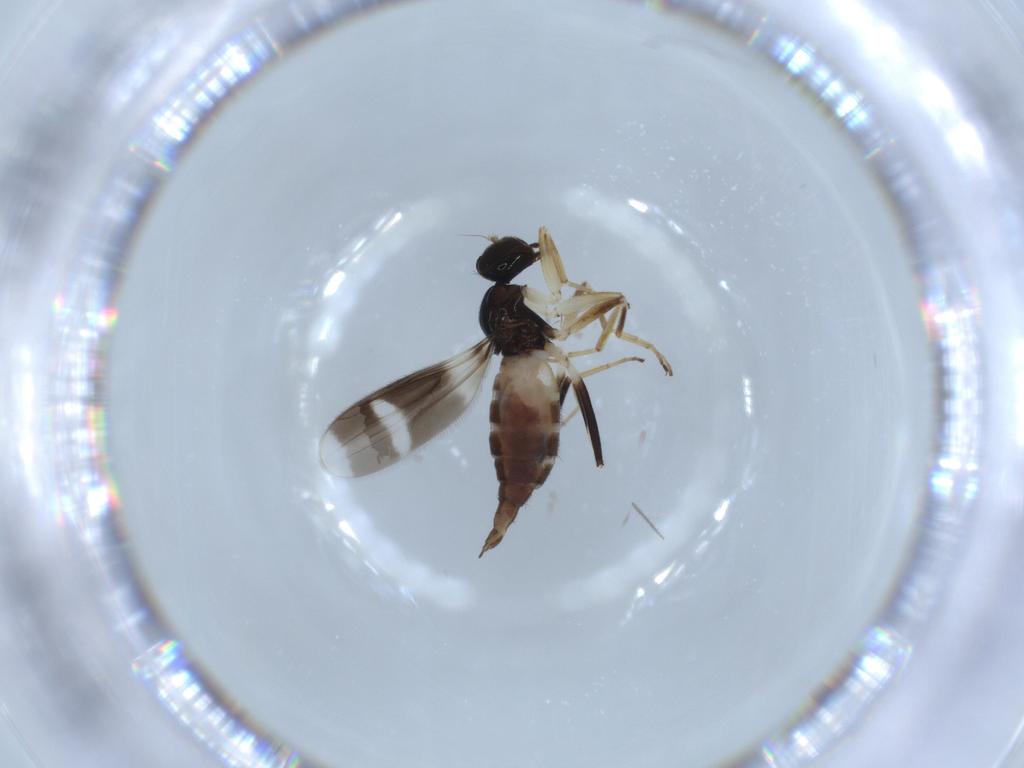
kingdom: Animalia
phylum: Arthropoda
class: Insecta
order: Diptera
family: Hybotidae
